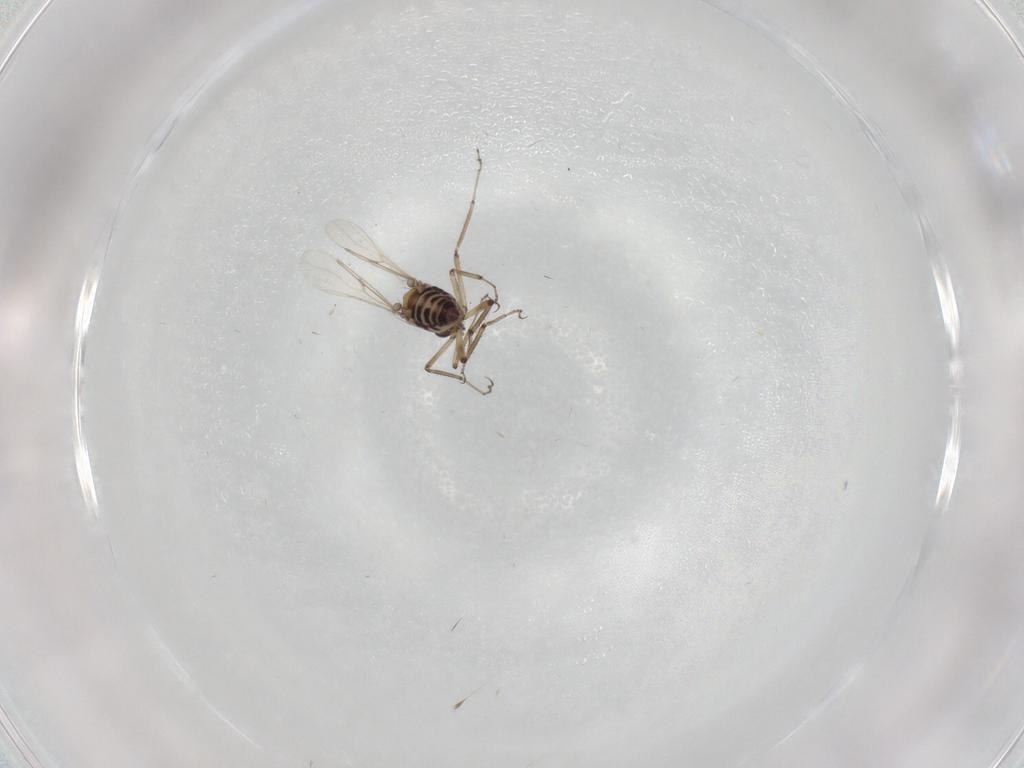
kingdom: Animalia
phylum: Arthropoda
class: Insecta
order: Diptera
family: Ceratopogonidae
